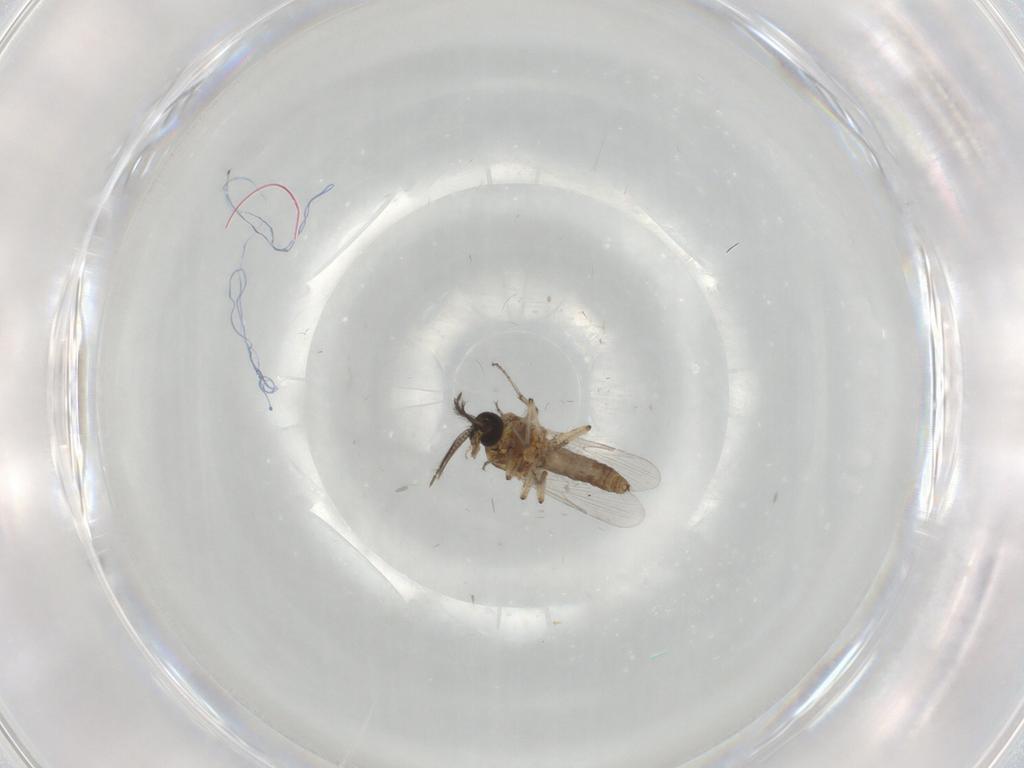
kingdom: Animalia
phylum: Arthropoda
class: Insecta
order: Diptera
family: Ceratopogonidae
